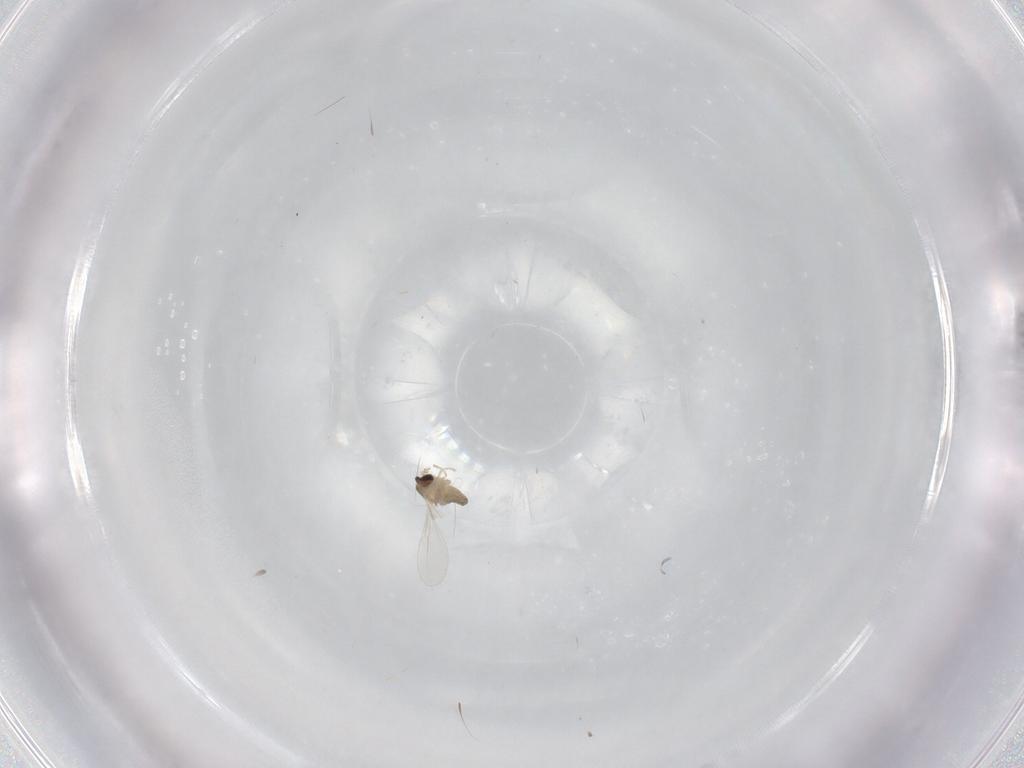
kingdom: Animalia
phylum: Arthropoda
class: Insecta
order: Diptera
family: Cecidomyiidae
